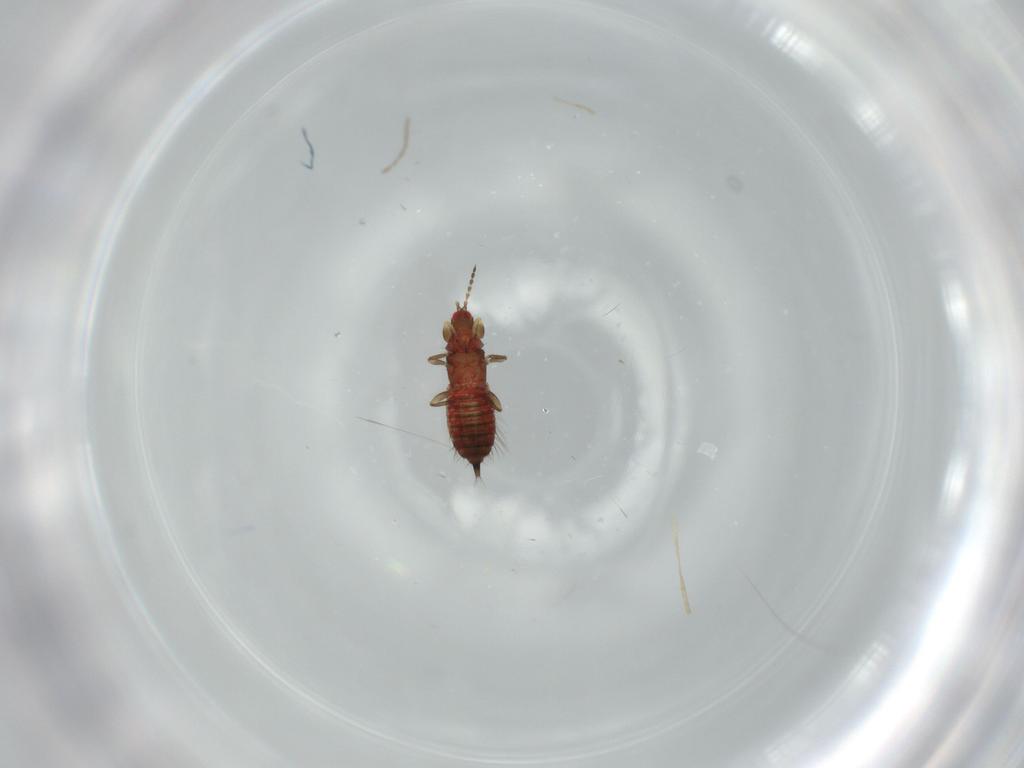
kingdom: Animalia
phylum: Arthropoda
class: Insecta
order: Thysanoptera
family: Phlaeothripidae
